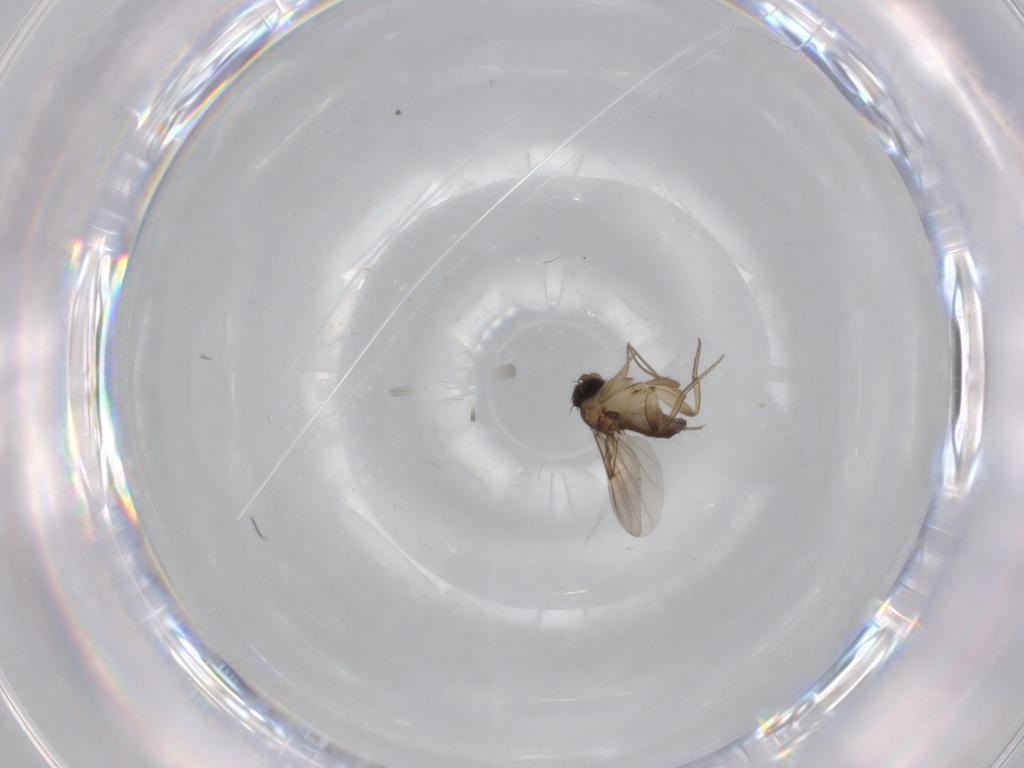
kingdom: Animalia
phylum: Arthropoda
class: Insecta
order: Diptera
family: Phoridae
